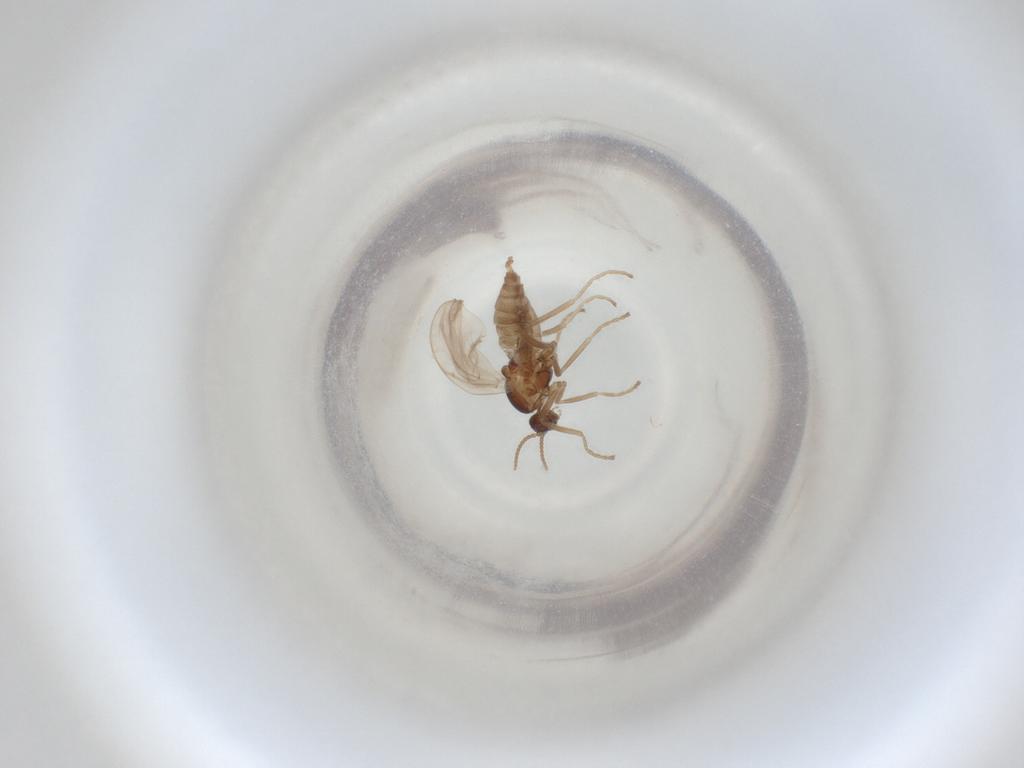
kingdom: Animalia
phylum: Arthropoda
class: Insecta
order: Diptera
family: Cecidomyiidae
